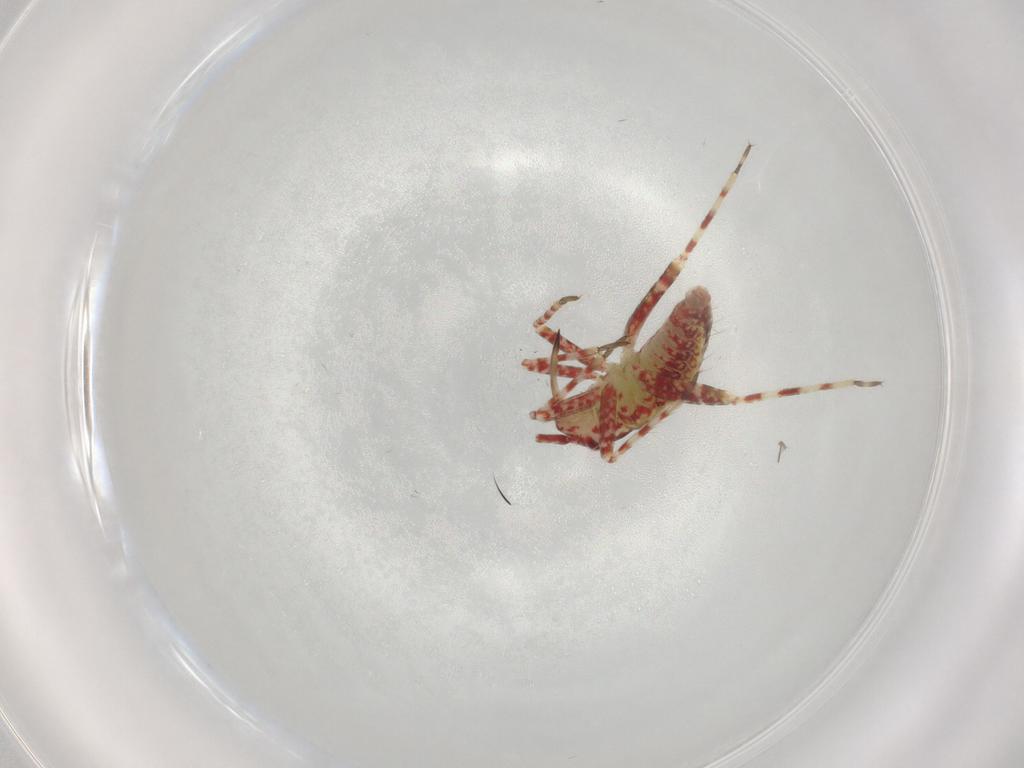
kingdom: Animalia
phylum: Arthropoda
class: Insecta
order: Hemiptera
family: Miridae
